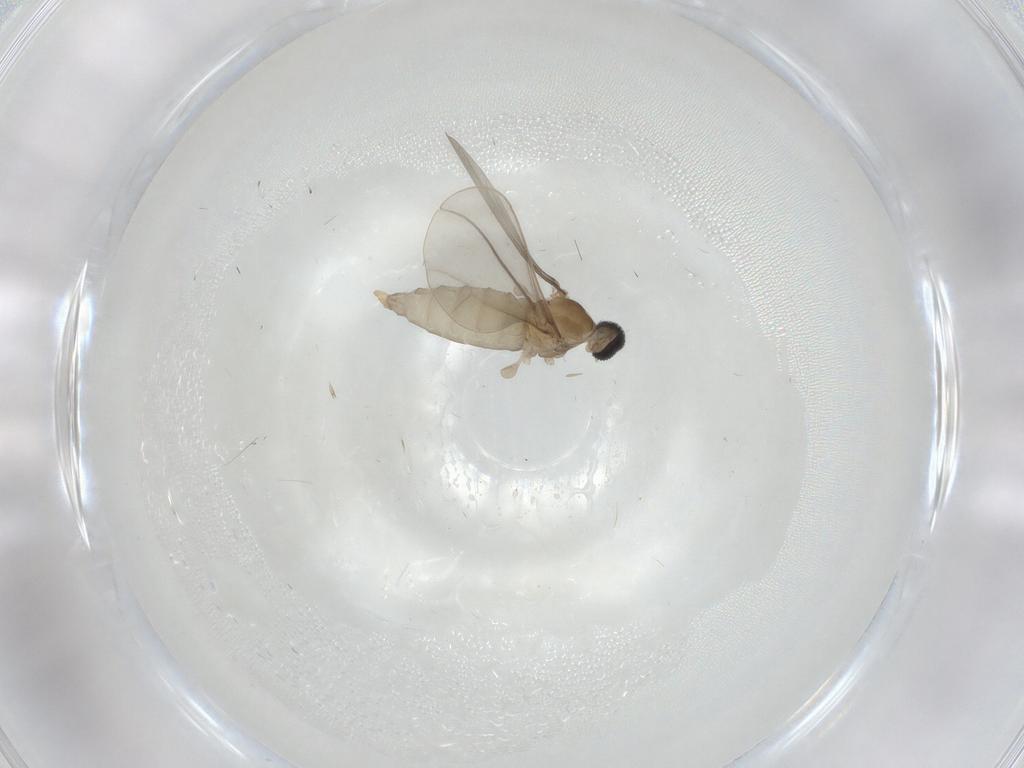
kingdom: Animalia
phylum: Arthropoda
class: Insecta
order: Diptera
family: Cecidomyiidae
